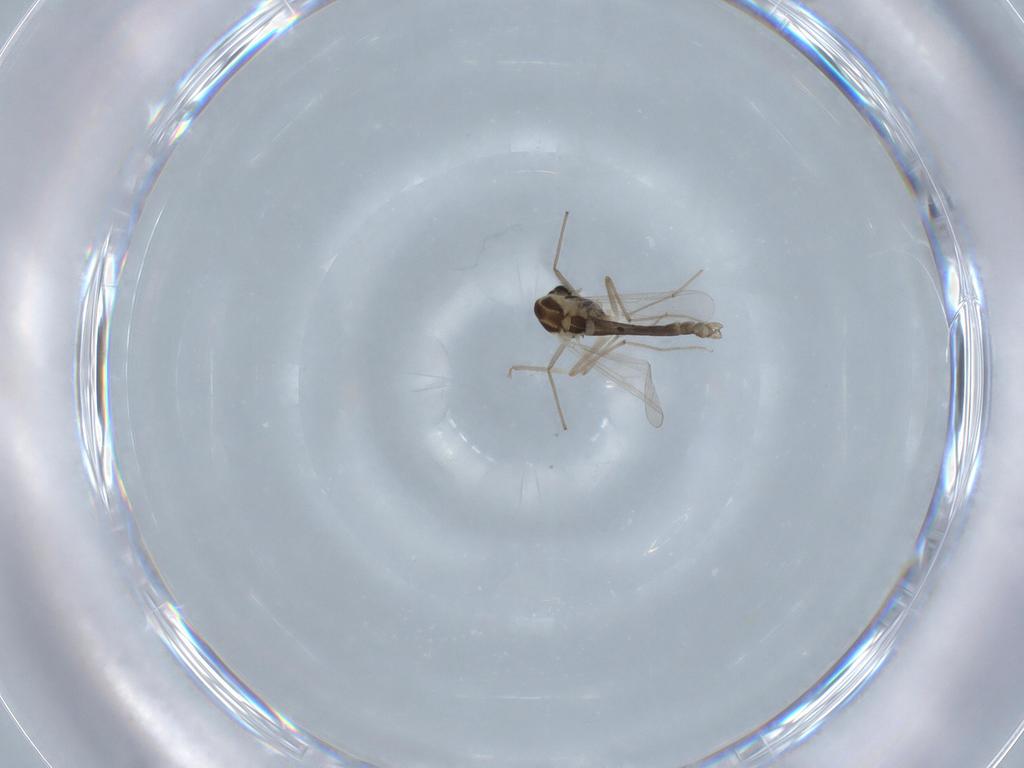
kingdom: Animalia
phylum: Arthropoda
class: Insecta
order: Diptera
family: Chironomidae
